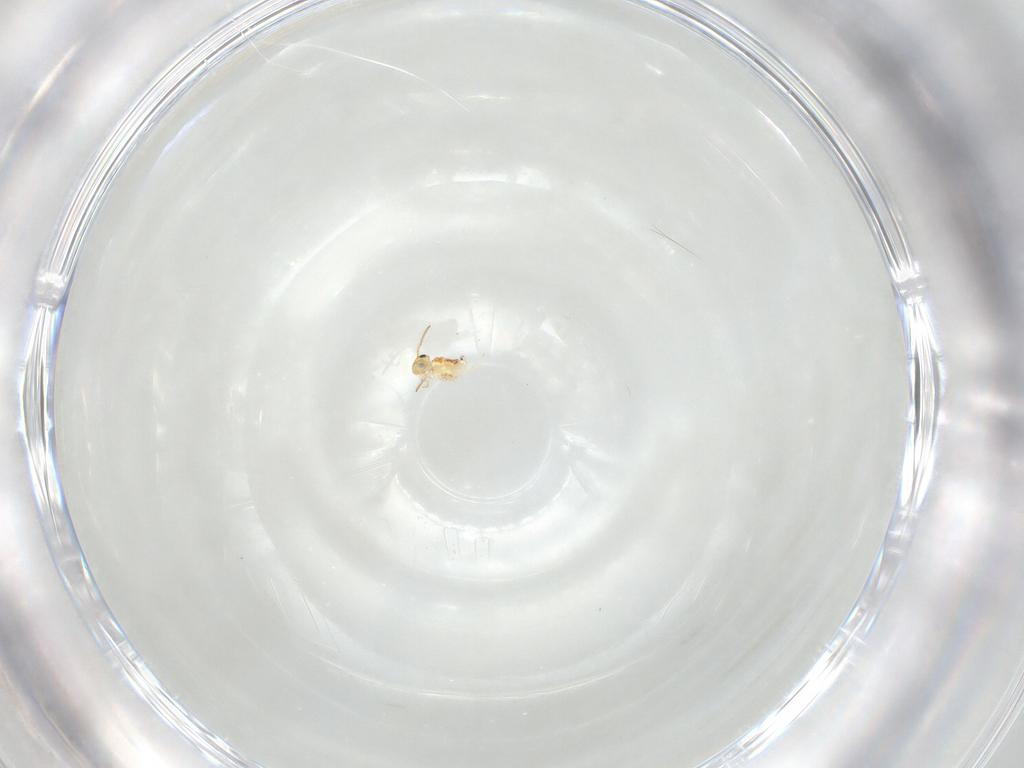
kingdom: Animalia
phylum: Arthropoda
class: Collembola
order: Symphypleona
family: Bourletiellidae
